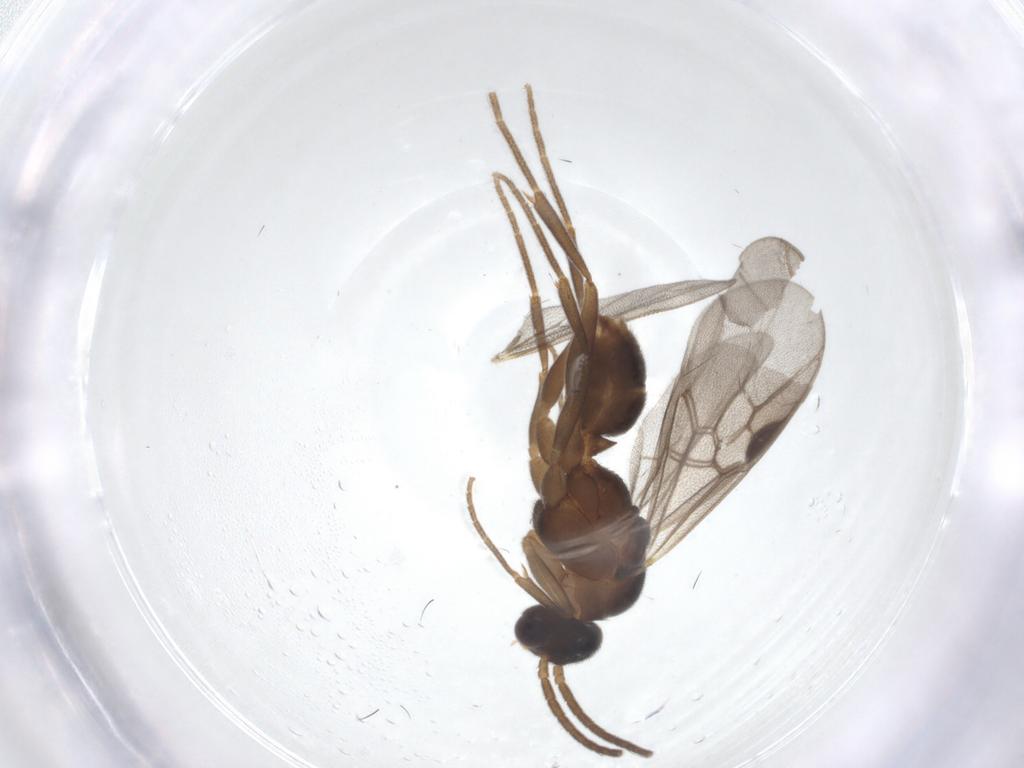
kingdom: Animalia
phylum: Arthropoda
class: Insecta
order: Hymenoptera
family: Formicidae
